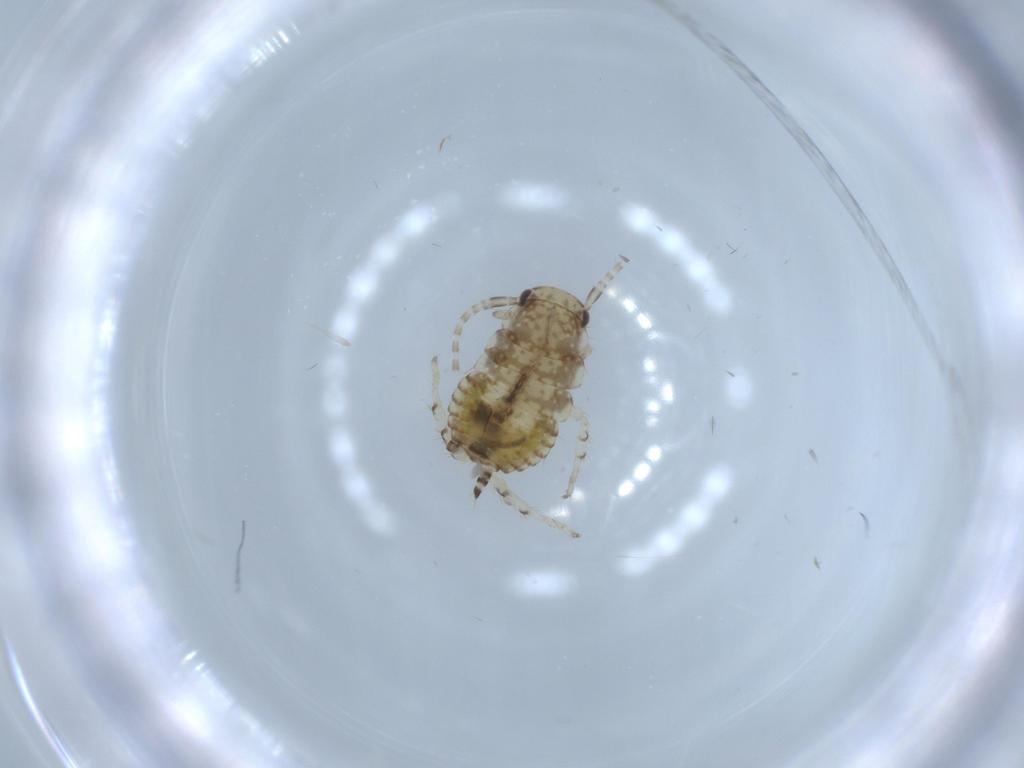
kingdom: Animalia
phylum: Arthropoda
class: Insecta
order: Blattodea
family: Ectobiidae
